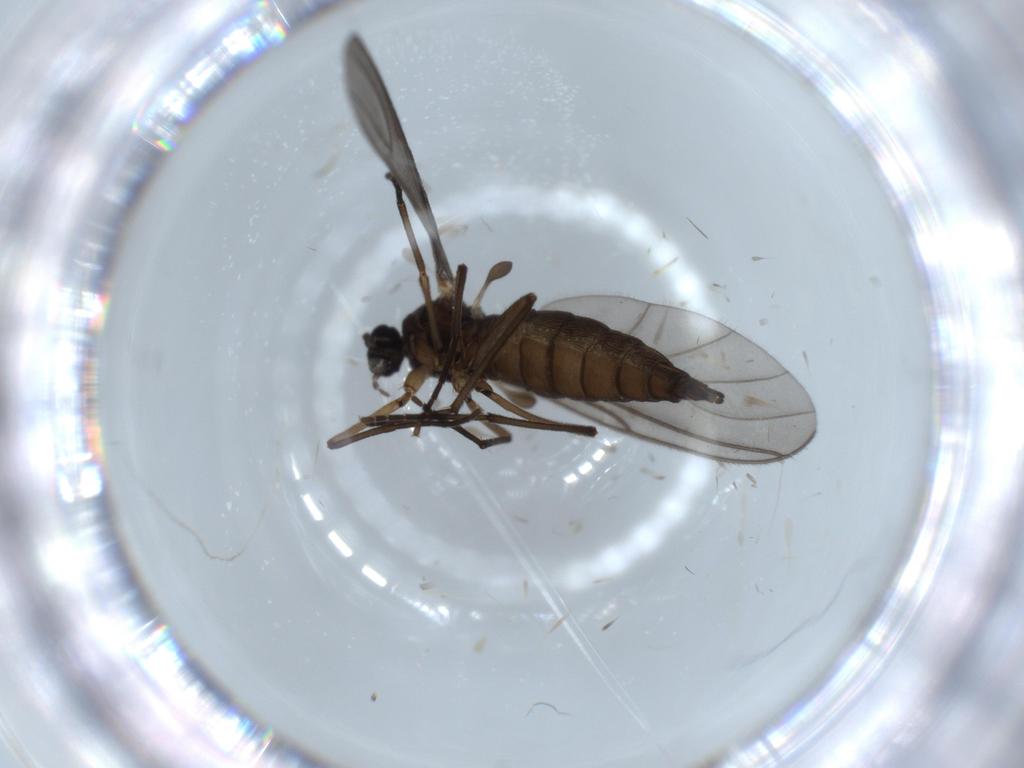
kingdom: Animalia
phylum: Arthropoda
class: Insecta
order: Diptera
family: Sciaridae
